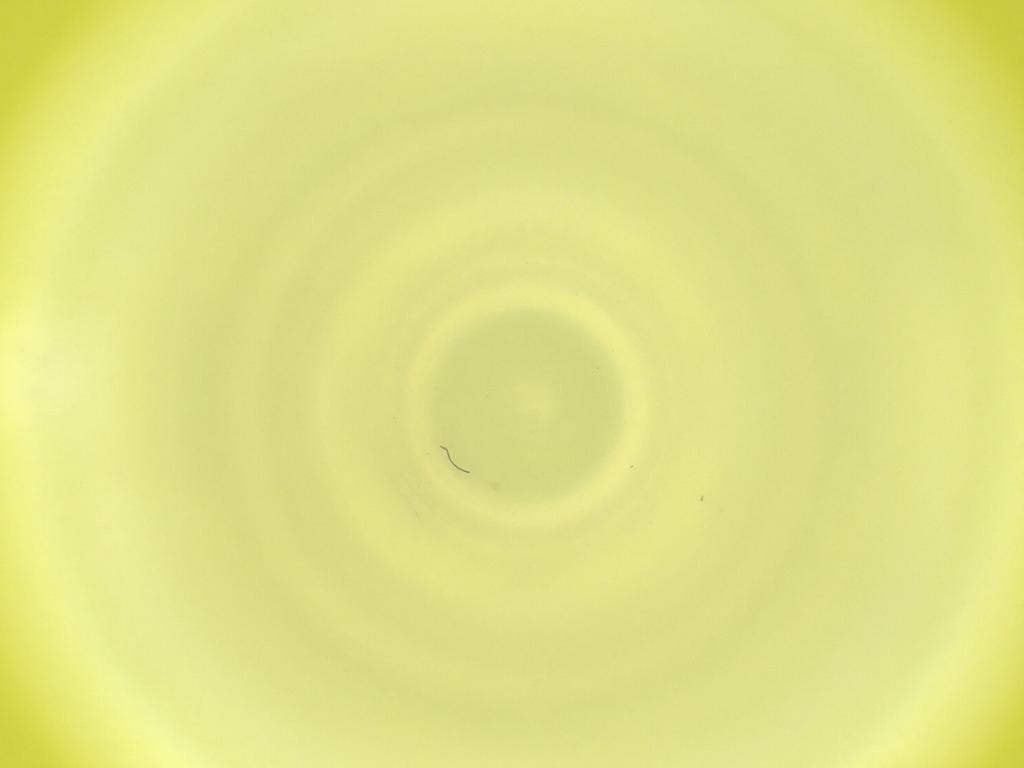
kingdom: Animalia
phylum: Arthropoda
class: Insecta
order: Diptera
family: Cecidomyiidae
